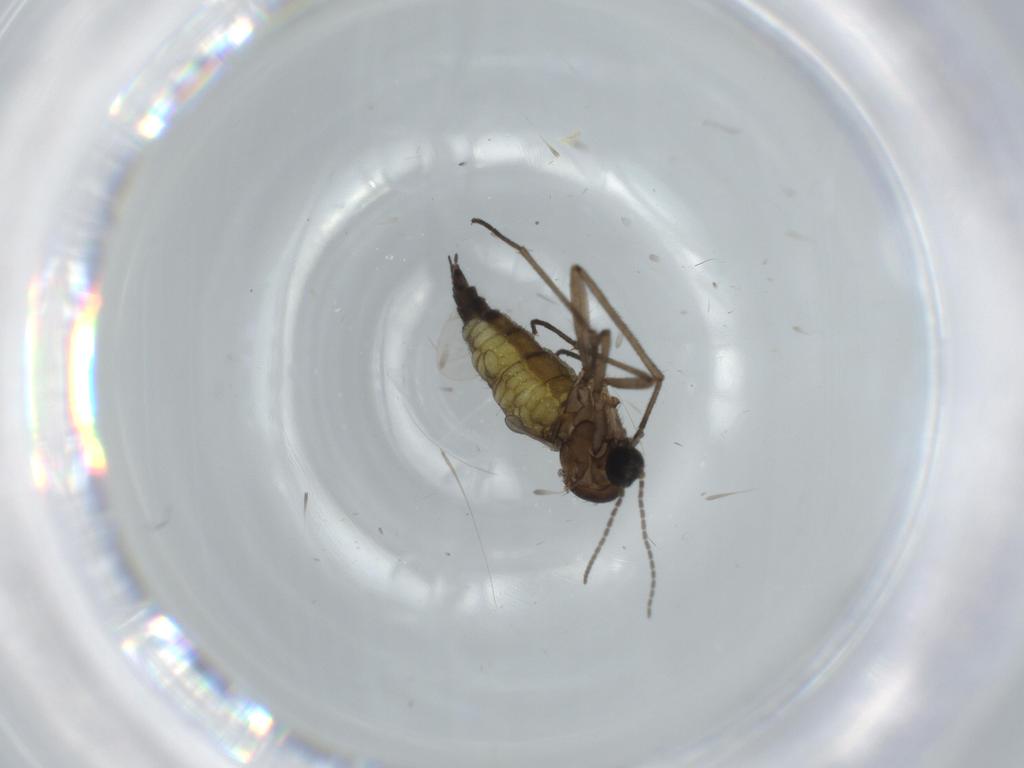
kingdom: Animalia
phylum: Arthropoda
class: Insecta
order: Diptera
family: Sciaridae
